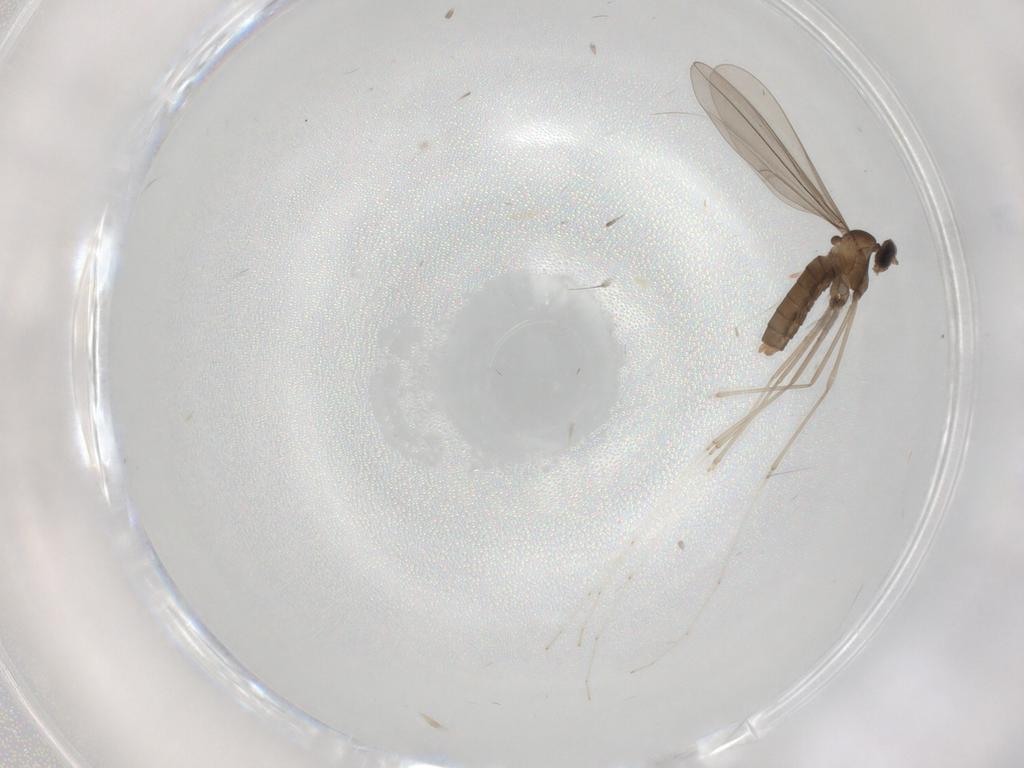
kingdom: Animalia
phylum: Arthropoda
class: Insecta
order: Diptera
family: Cecidomyiidae
